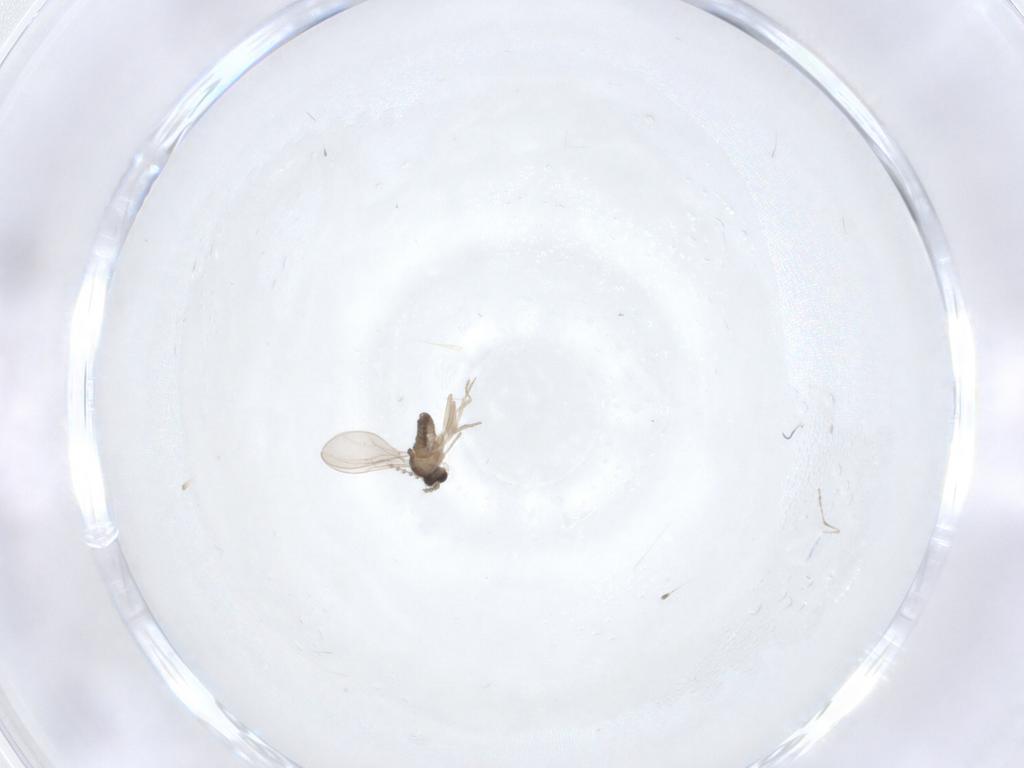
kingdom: Animalia
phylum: Arthropoda
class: Insecta
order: Diptera
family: Cecidomyiidae
